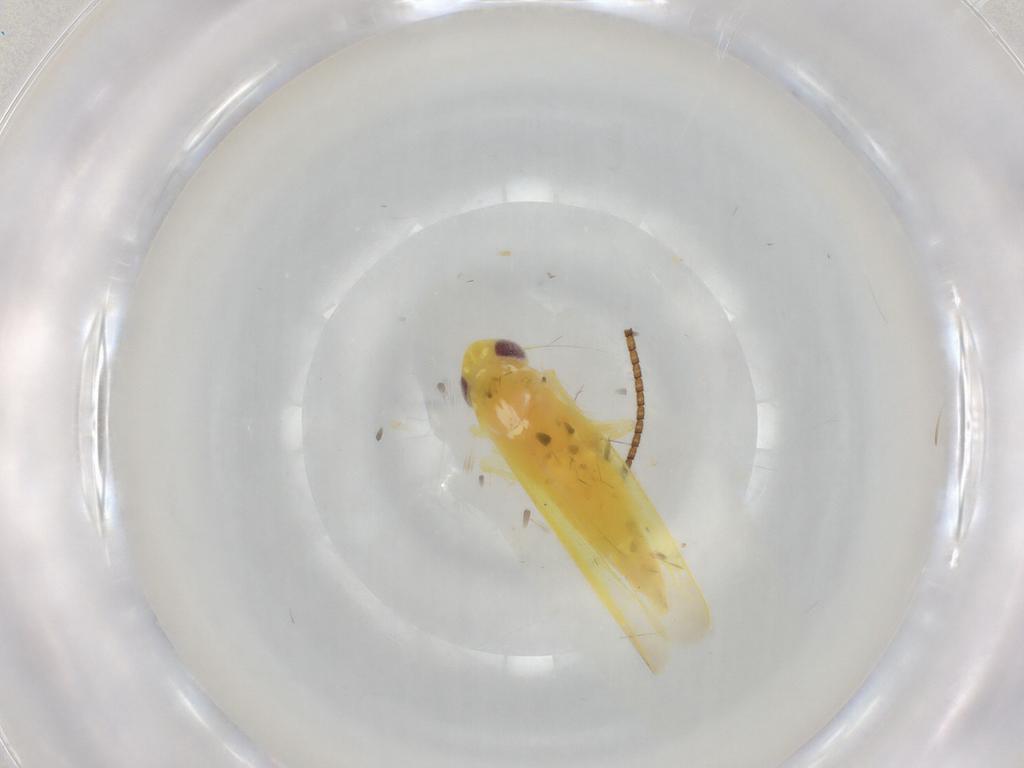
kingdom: Animalia
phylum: Arthropoda
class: Insecta
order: Hemiptera
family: Cicadellidae
